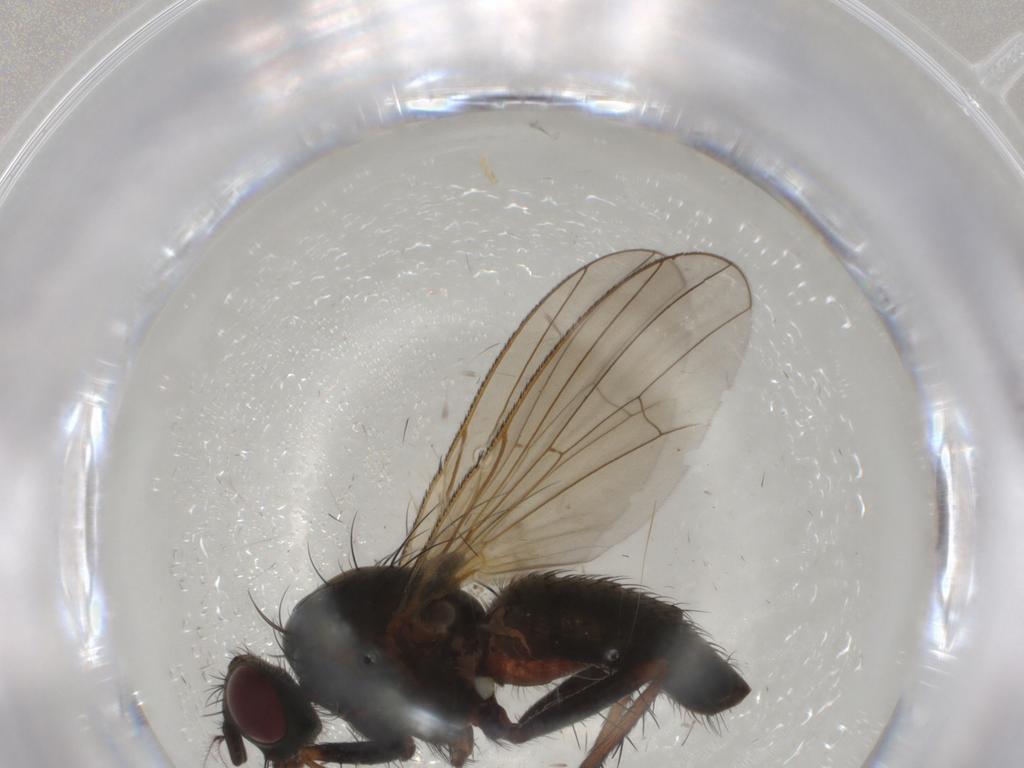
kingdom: Animalia
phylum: Arthropoda
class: Insecta
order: Diptera
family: Anthomyiidae
